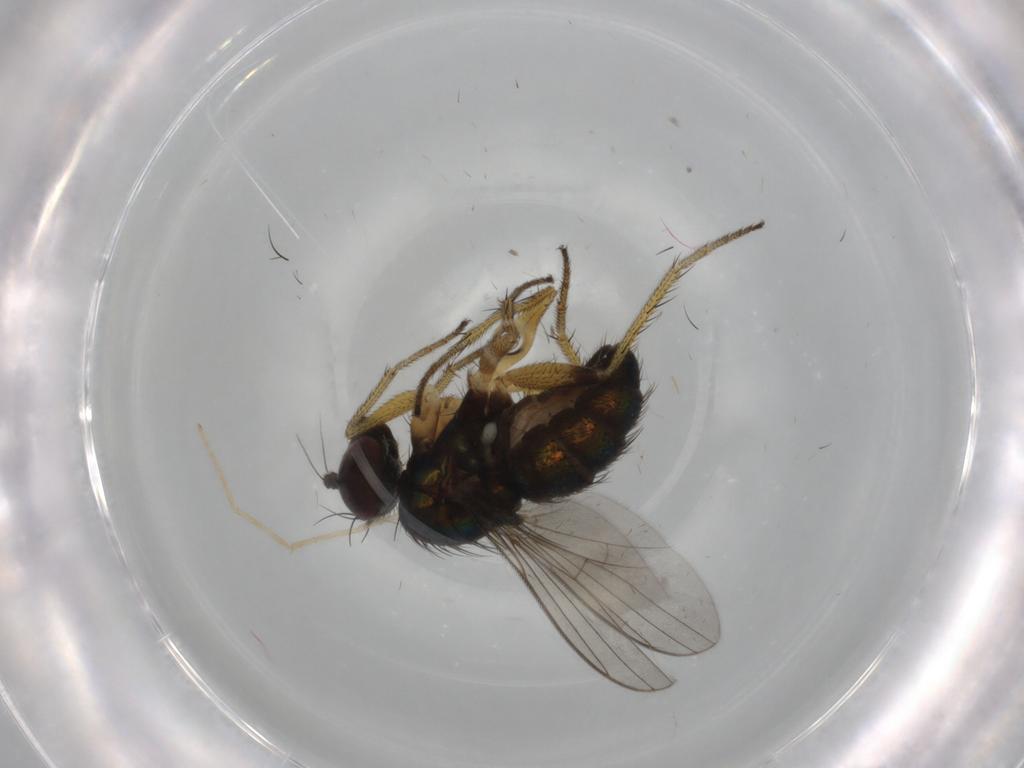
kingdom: Animalia
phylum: Arthropoda
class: Insecta
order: Diptera
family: Dolichopodidae
